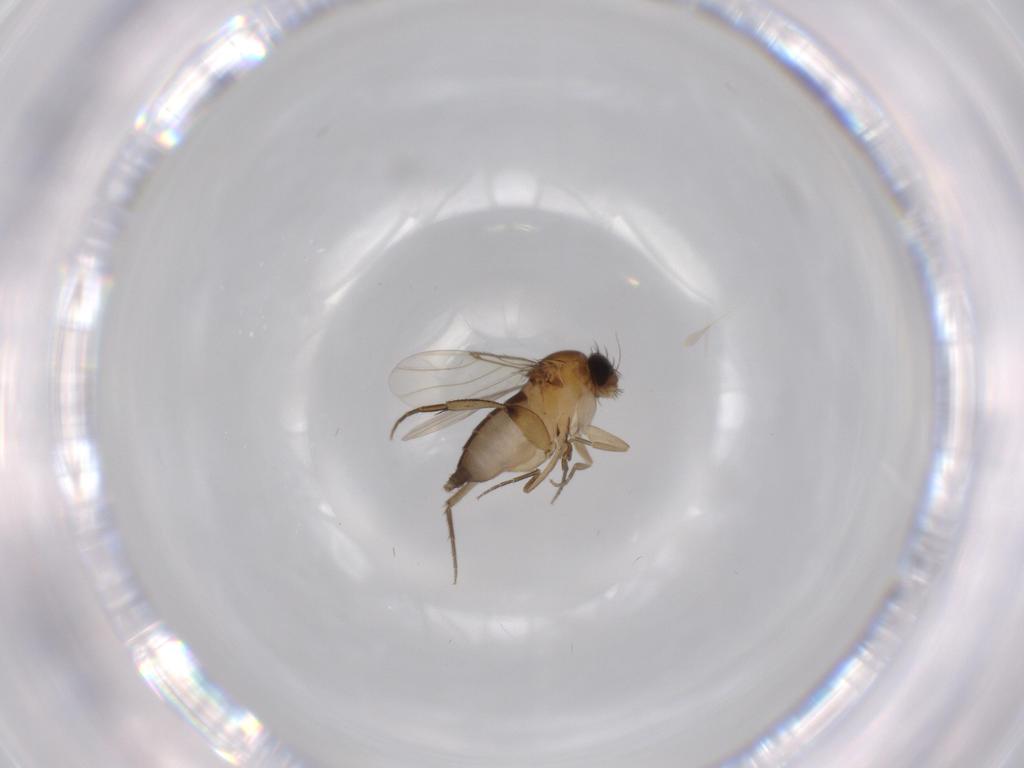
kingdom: Animalia
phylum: Arthropoda
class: Insecta
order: Diptera
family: Phoridae
